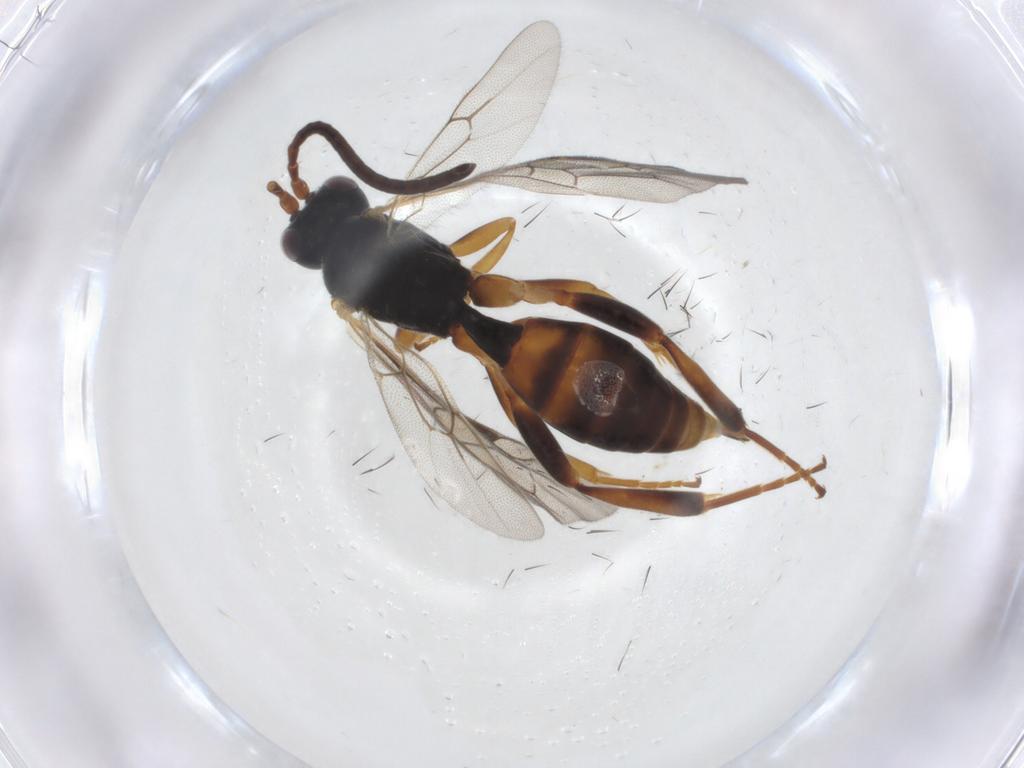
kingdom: Animalia
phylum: Arthropoda
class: Insecta
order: Hymenoptera
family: Ichneumonidae
